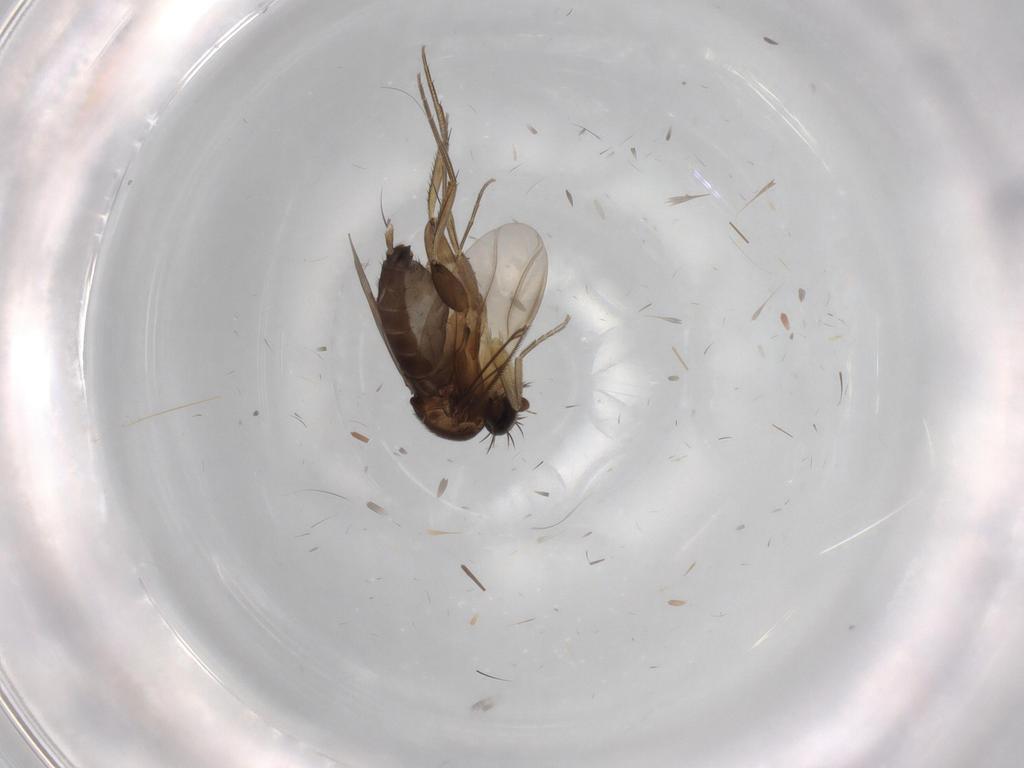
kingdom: Animalia
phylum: Arthropoda
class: Insecta
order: Diptera
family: Phoridae
